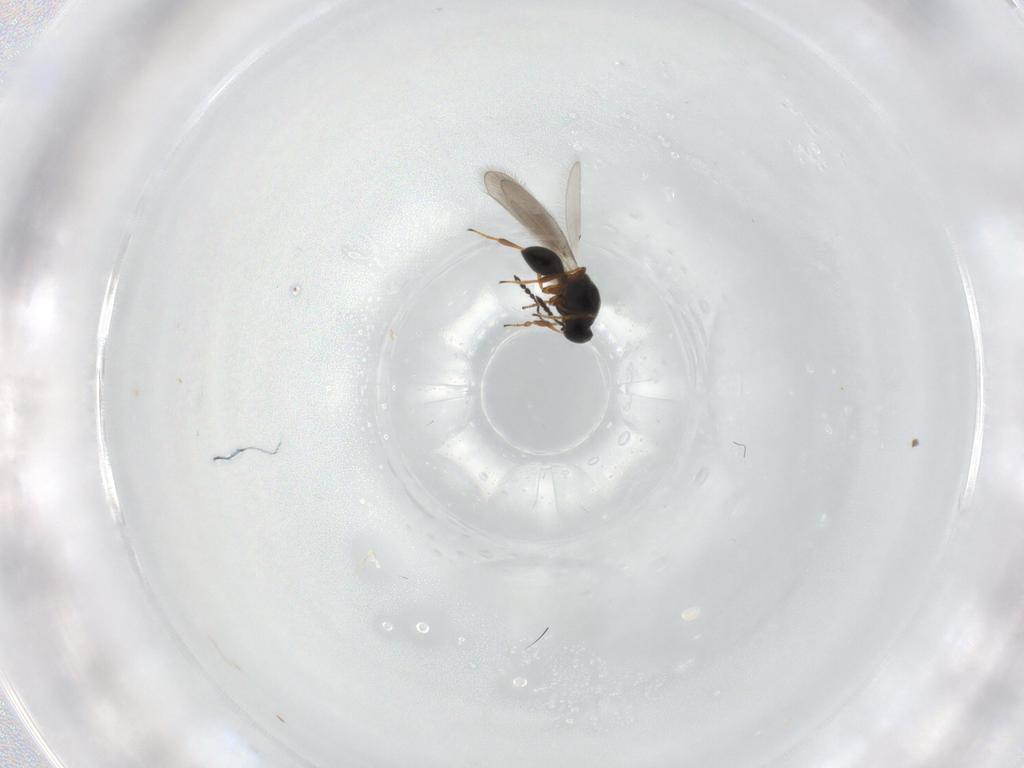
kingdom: Animalia
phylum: Arthropoda
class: Insecta
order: Hymenoptera
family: Platygastridae
